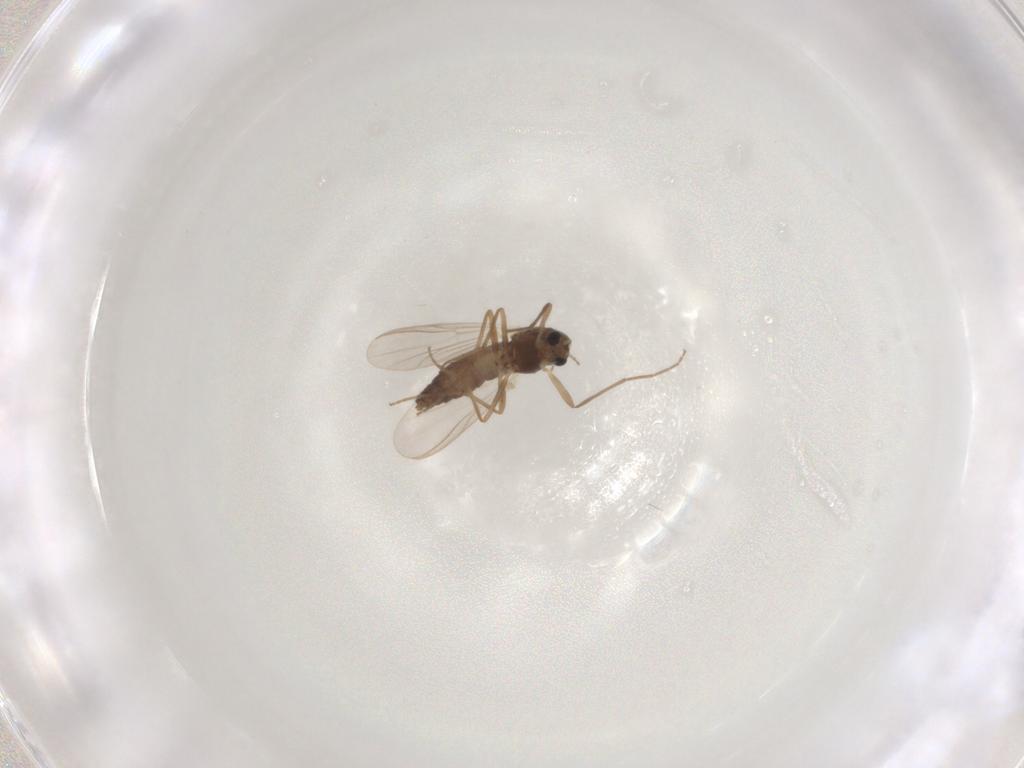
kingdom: Animalia
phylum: Arthropoda
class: Insecta
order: Diptera
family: Chironomidae
